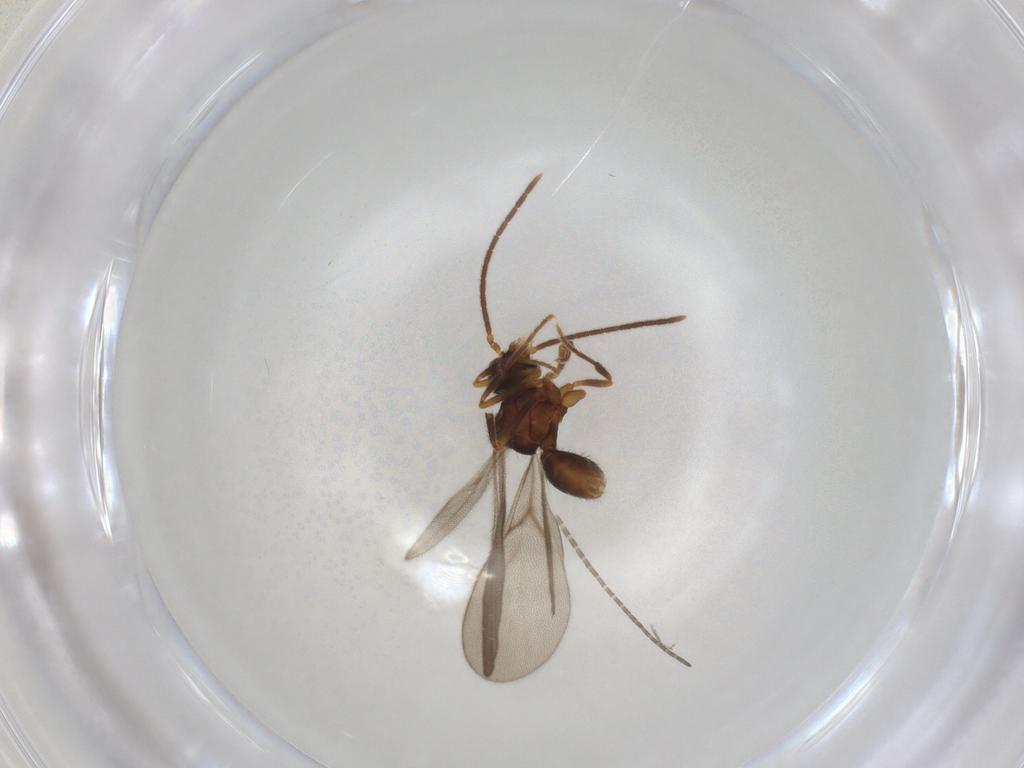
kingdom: Animalia
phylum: Arthropoda
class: Insecta
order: Hymenoptera
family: Formicidae
